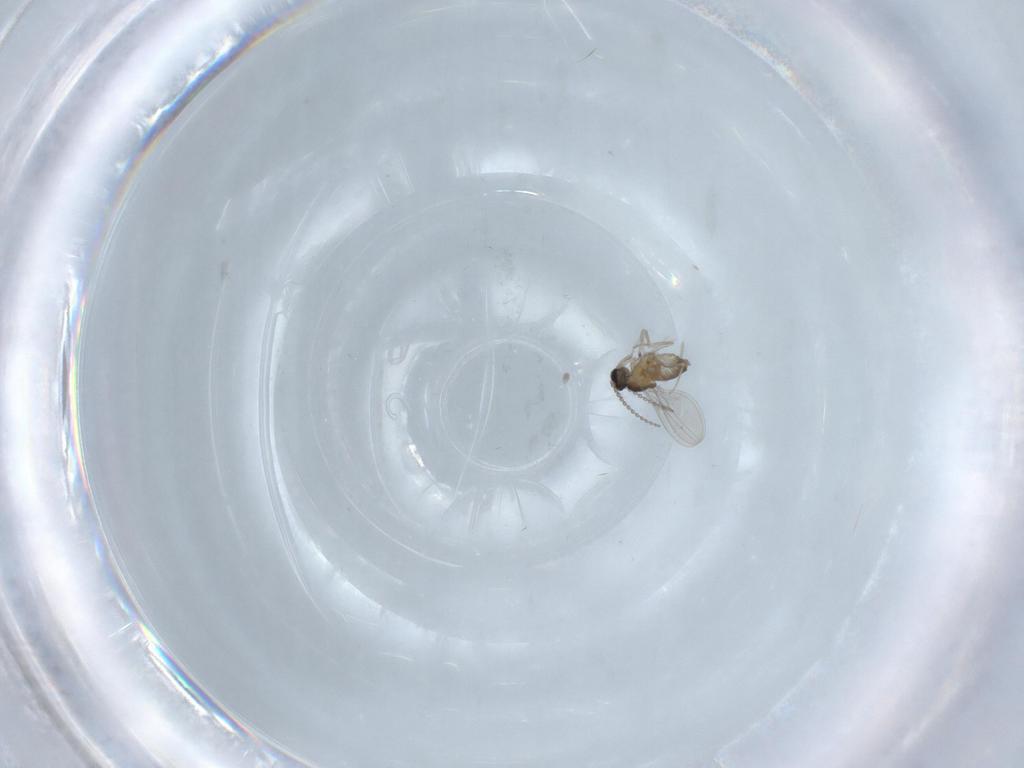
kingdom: Animalia
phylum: Arthropoda
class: Insecta
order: Diptera
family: Cecidomyiidae
